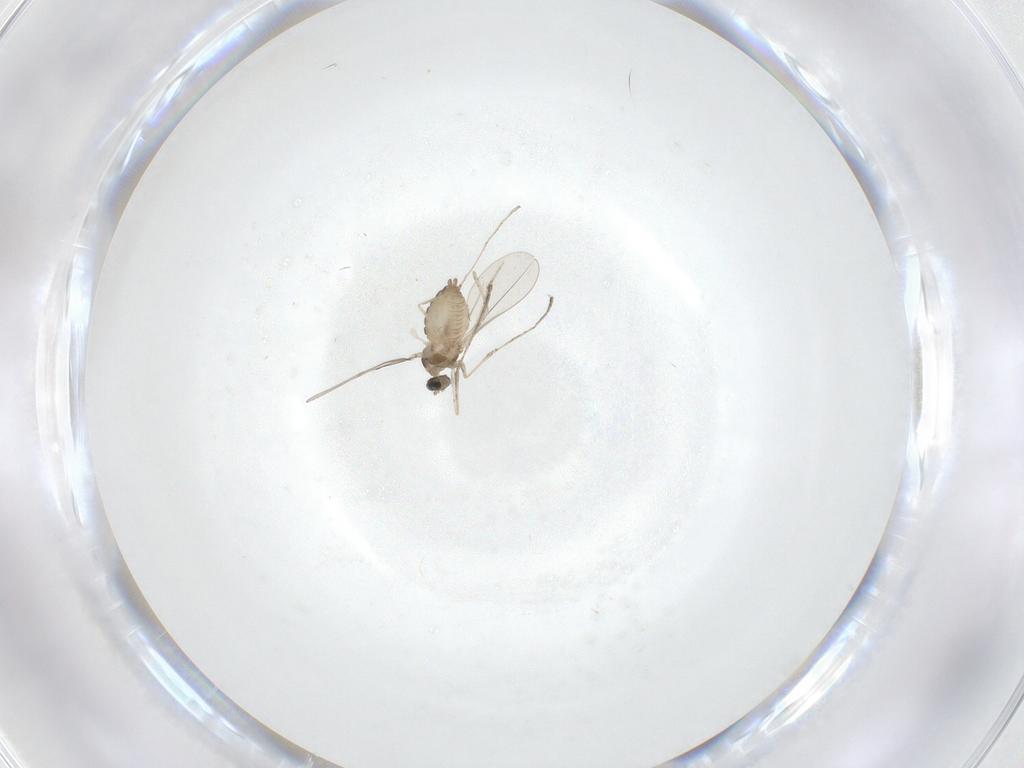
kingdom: Animalia
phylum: Arthropoda
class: Insecta
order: Diptera
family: Cecidomyiidae
